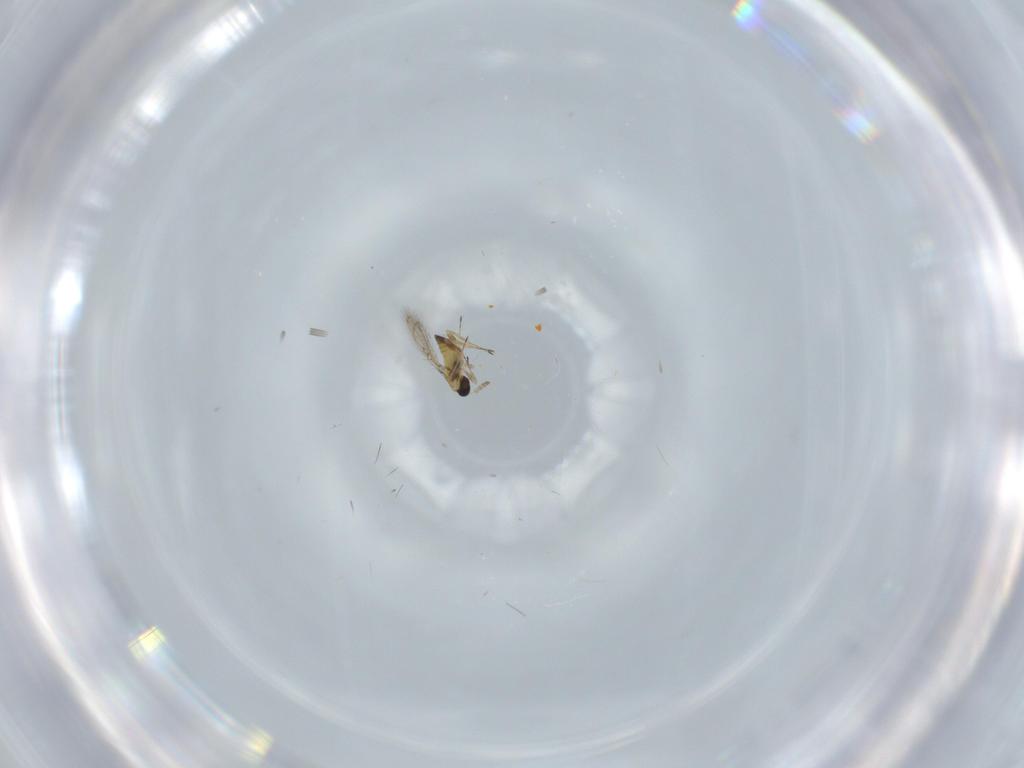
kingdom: Animalia
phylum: Arthropoda
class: Insecta
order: Hymenoptera
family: Trichogrammatidae
